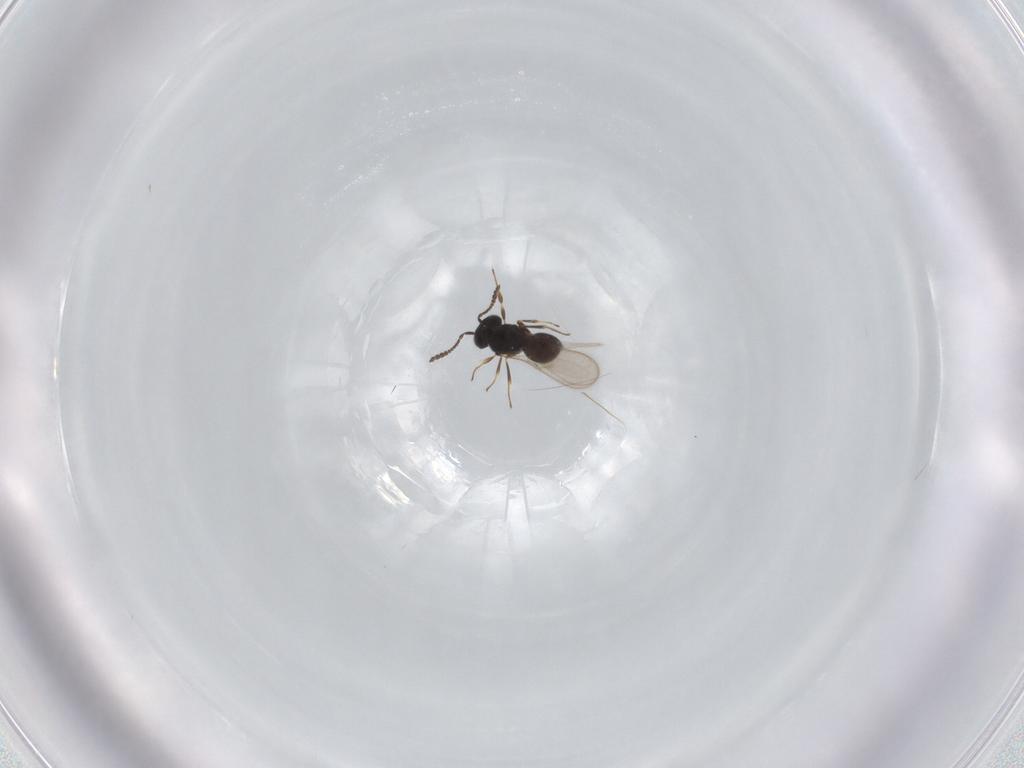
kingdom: Animalia
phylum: Arthropoda
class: Insecta
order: Hymenoptera
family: Scelionidae
